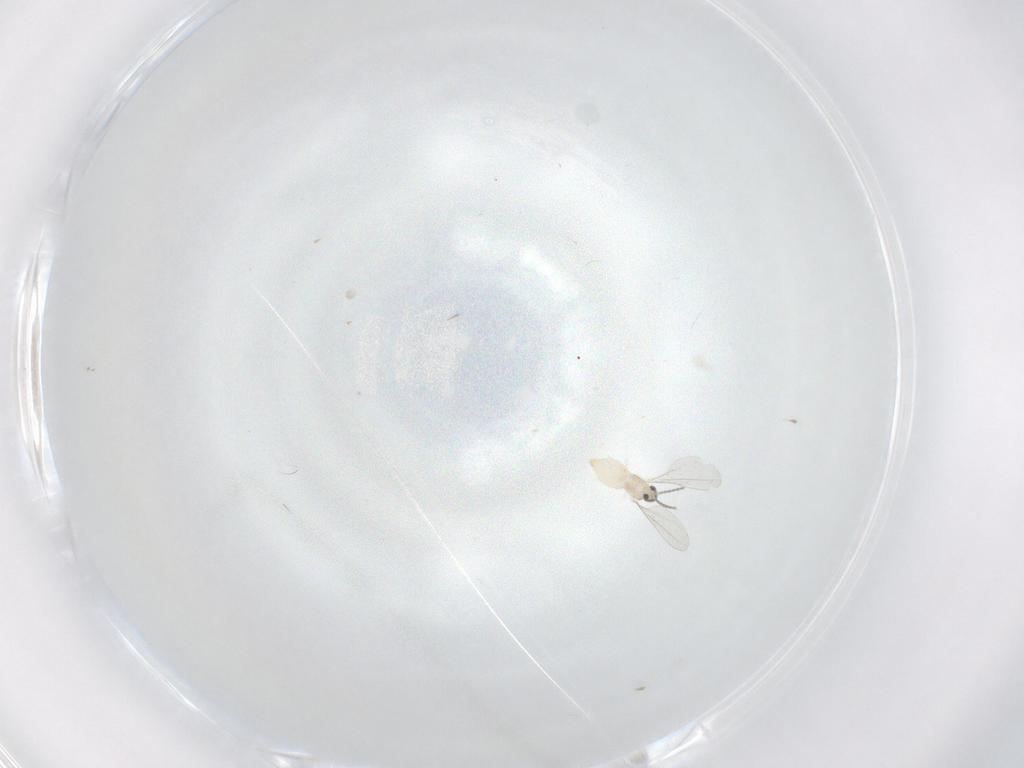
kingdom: Animalia
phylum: Arthropoda
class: Insecta
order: Diptera
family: Cecidomyiidae
